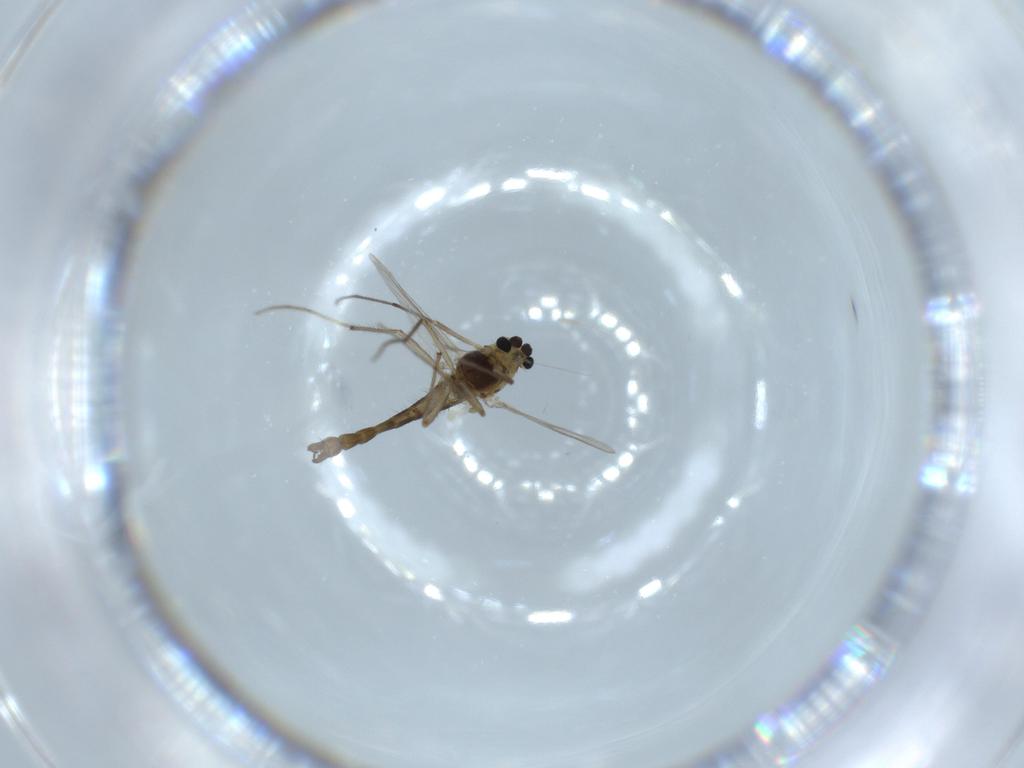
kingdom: Animalia
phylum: Arthropoda
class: Insecta
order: Diptera
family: Chironomidae
